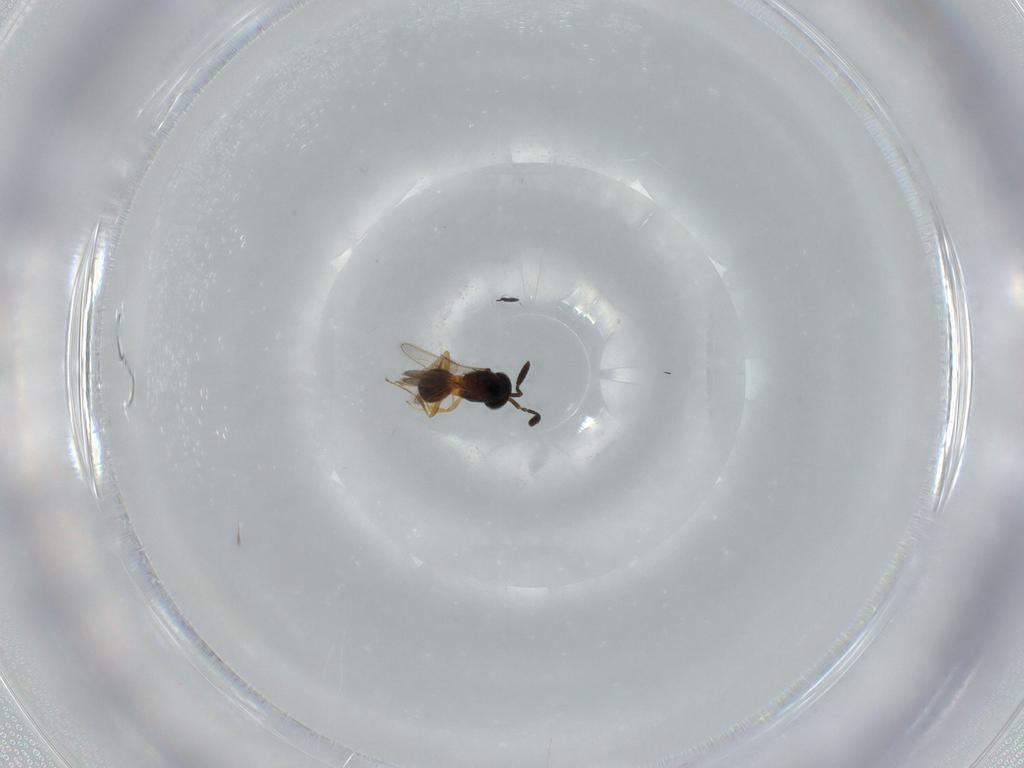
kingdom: Animalia
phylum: Arthropoda
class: Insecta
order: Hymenoptera
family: Scelionidae
